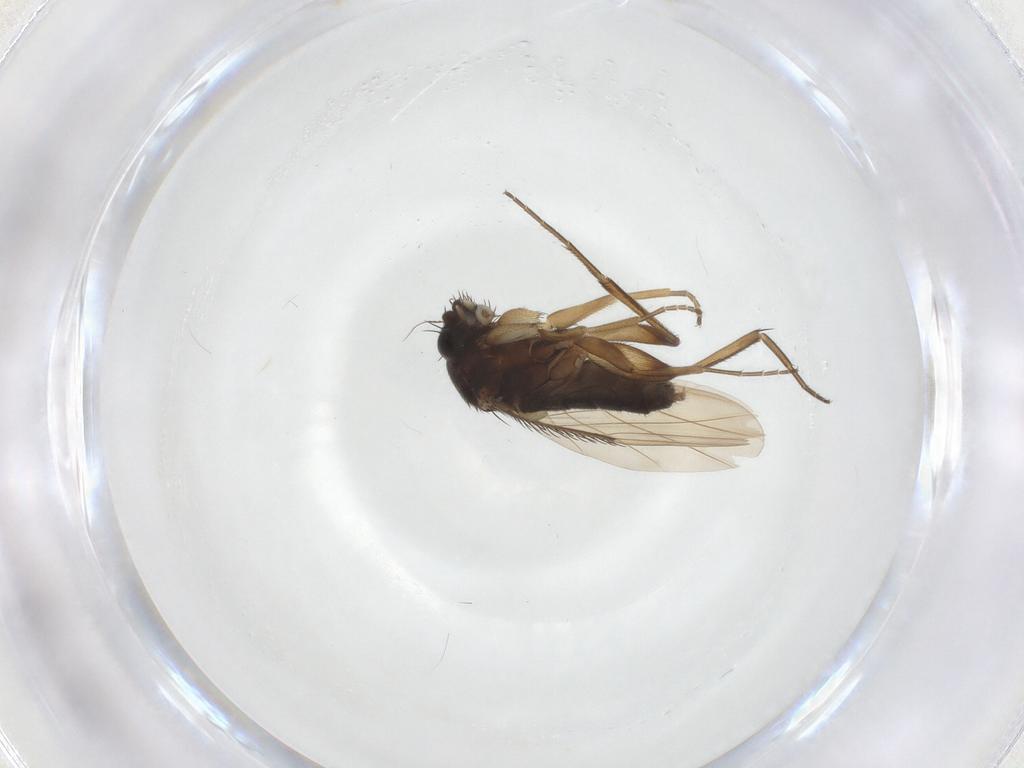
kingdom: Animalia
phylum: Arthropoda
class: Insecta
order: Diptera
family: Phoridae
